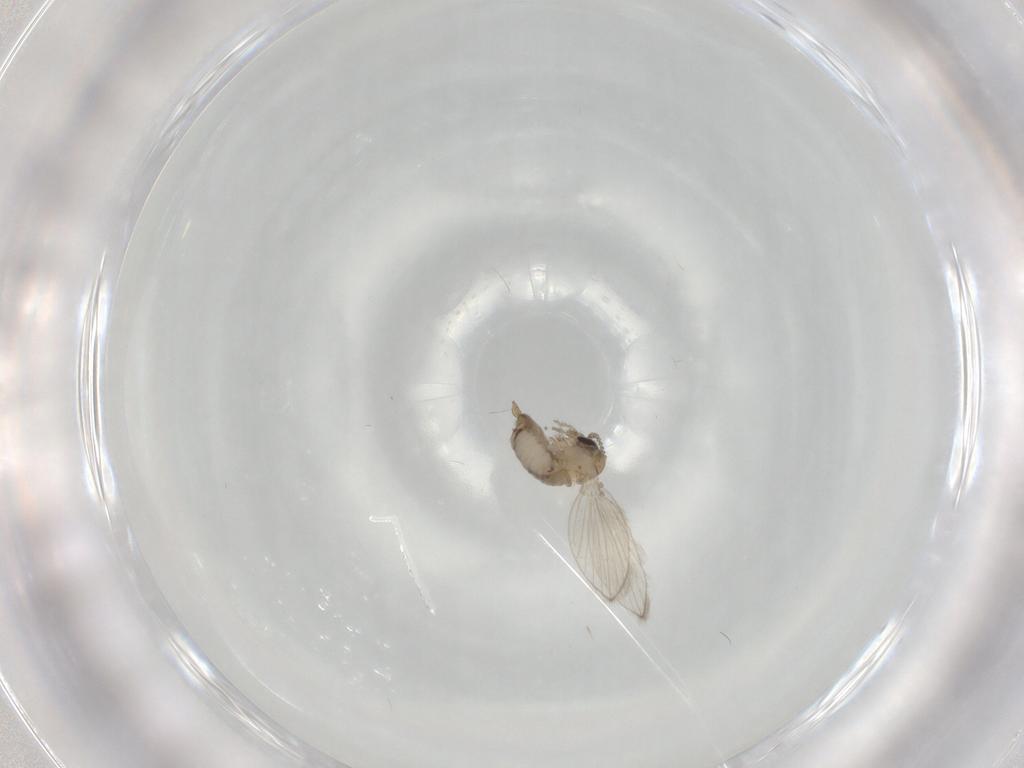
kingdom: Animalia
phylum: Arthropoda
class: Insecta
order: Diptera
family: Psychodidae
